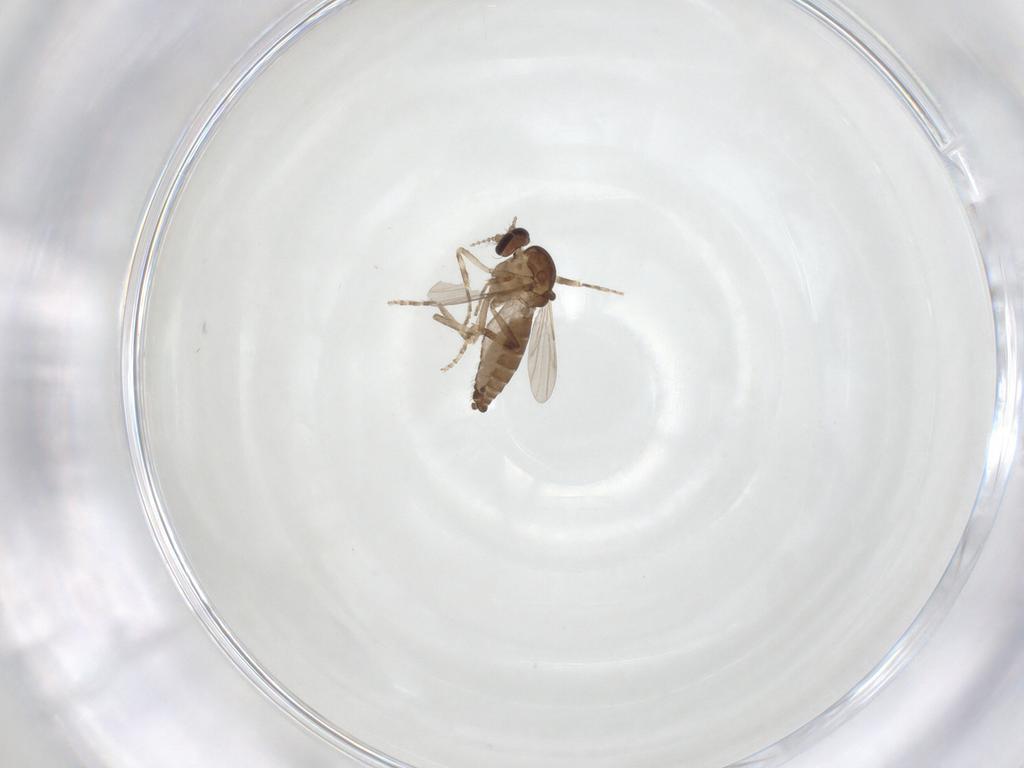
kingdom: Animalia
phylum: Arthropoda
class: Insecta
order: Diptera
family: Ceratopogonidae
